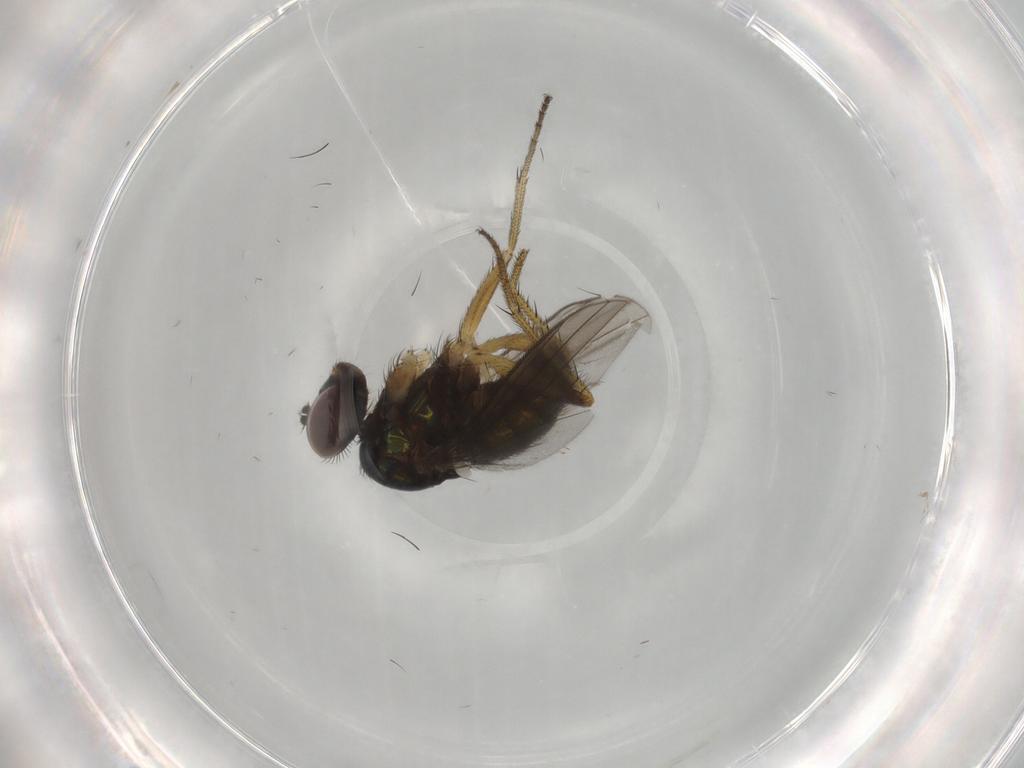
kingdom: Animalia
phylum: Arthropoda
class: Insecta
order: Diptera
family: Dolichopodidae
